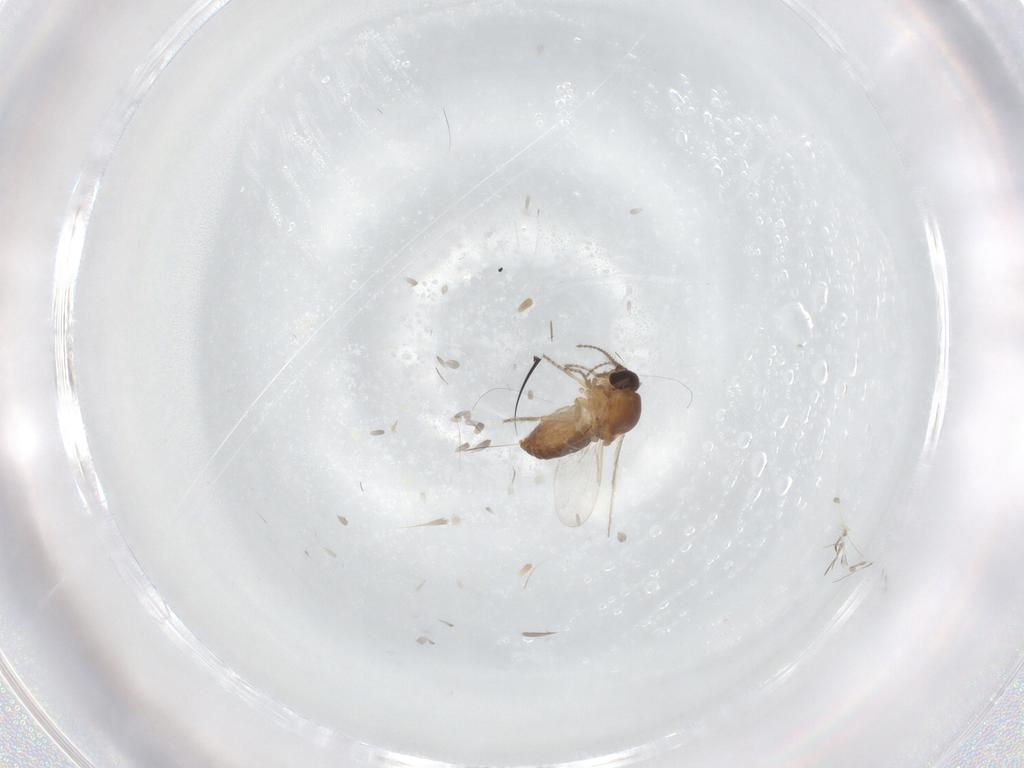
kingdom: Animalia
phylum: Arthropoda
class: Insecta
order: Diptera
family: Ceratopogonidae
